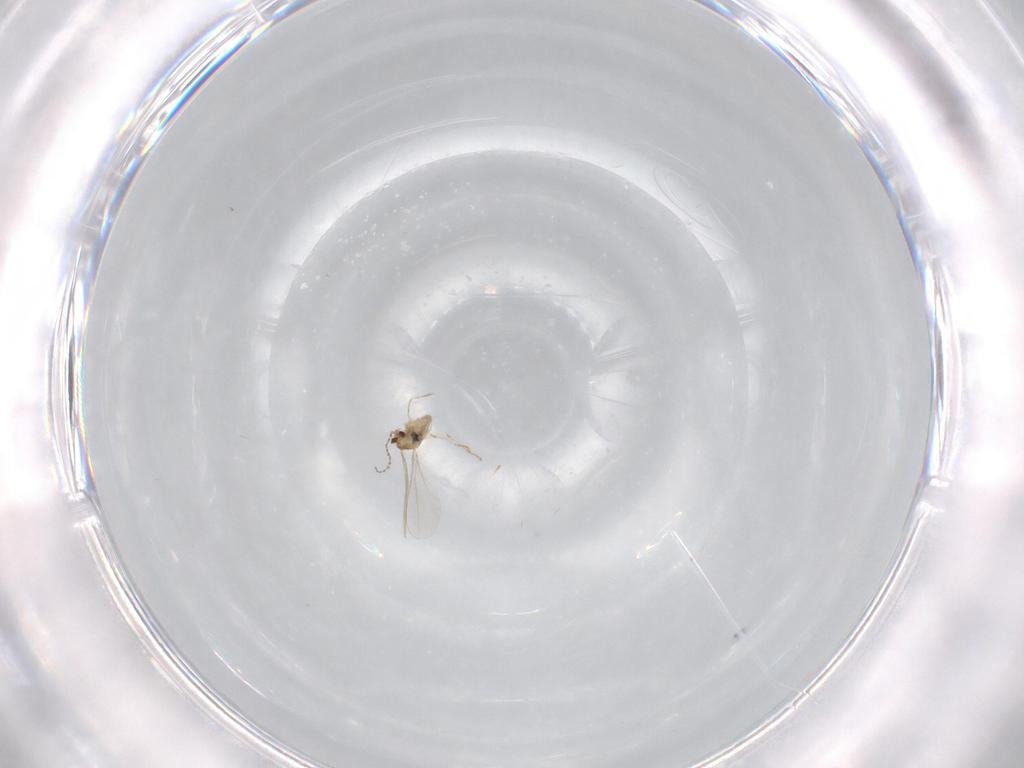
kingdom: Animalia
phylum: Arthropoda
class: Insecta
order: Diptera
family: Cecidomyiidae
